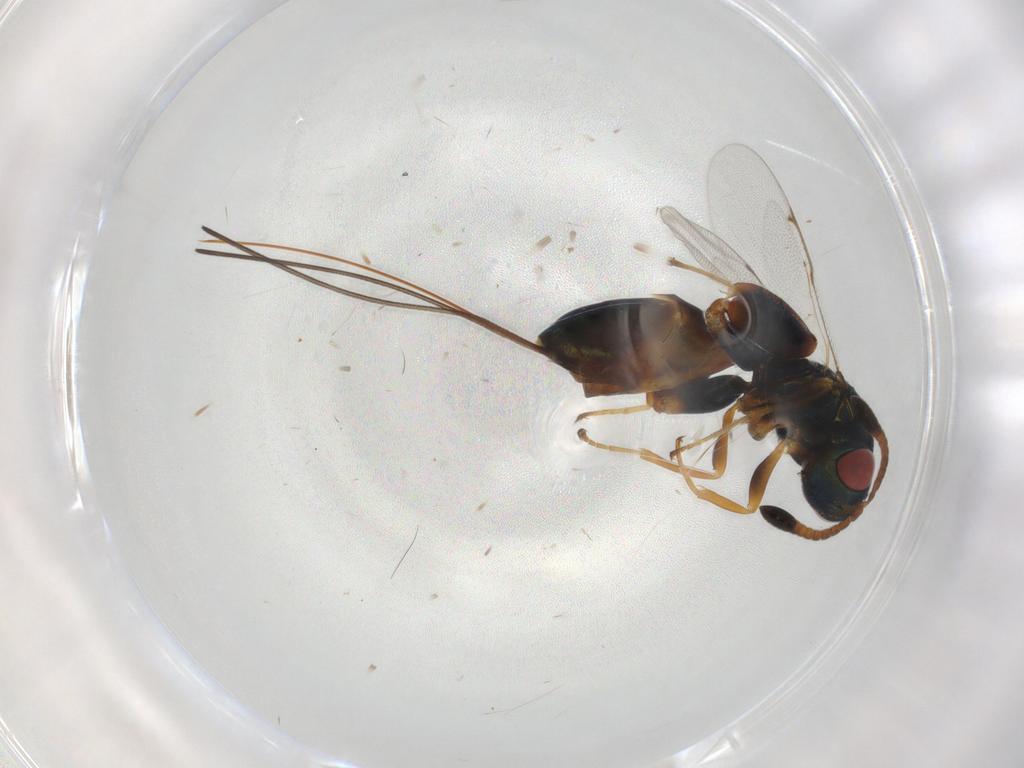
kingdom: Animalia
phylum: Arthropoda
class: Insecta
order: Hymenoptera
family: Torymidae
